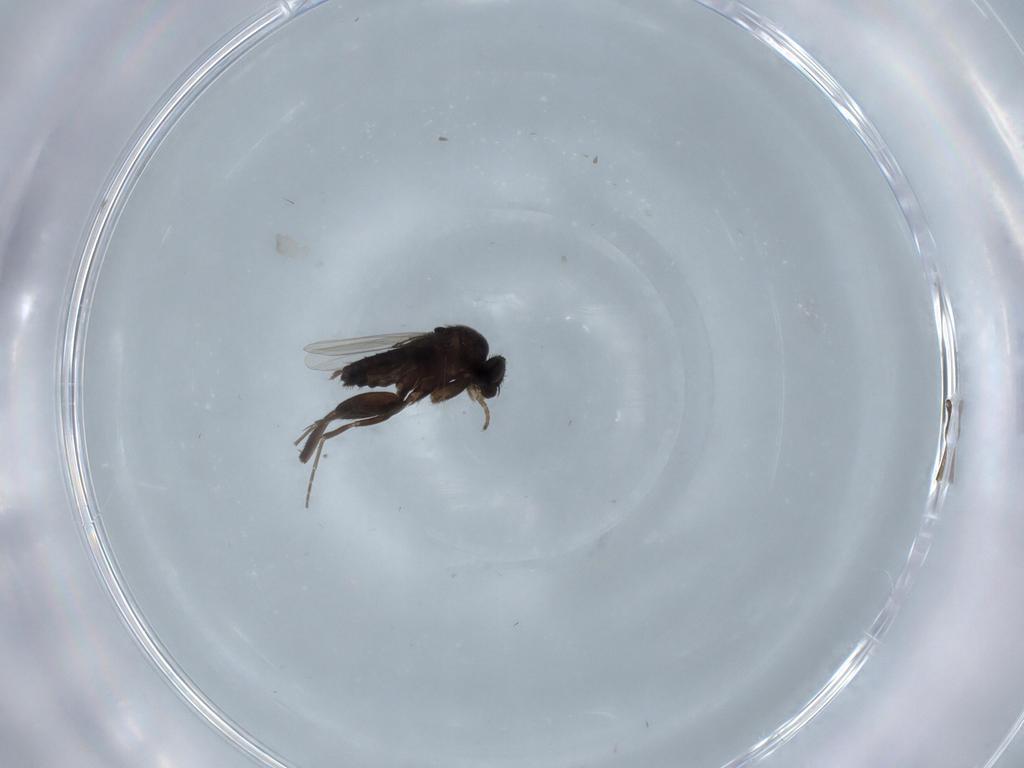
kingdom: Animalia
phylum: Arthropoda
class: Insecta
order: Diptera
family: Phoridae
